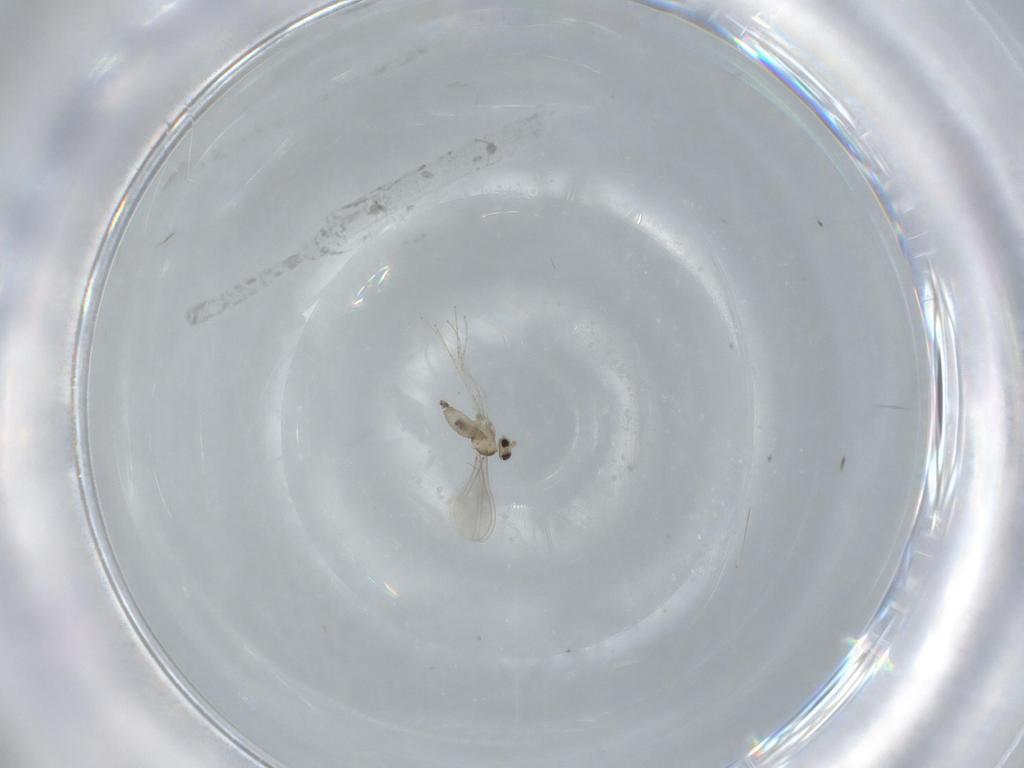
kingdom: Animalia
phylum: Arthropoda
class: Insecta
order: Diptera
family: Cecidomyiidae
